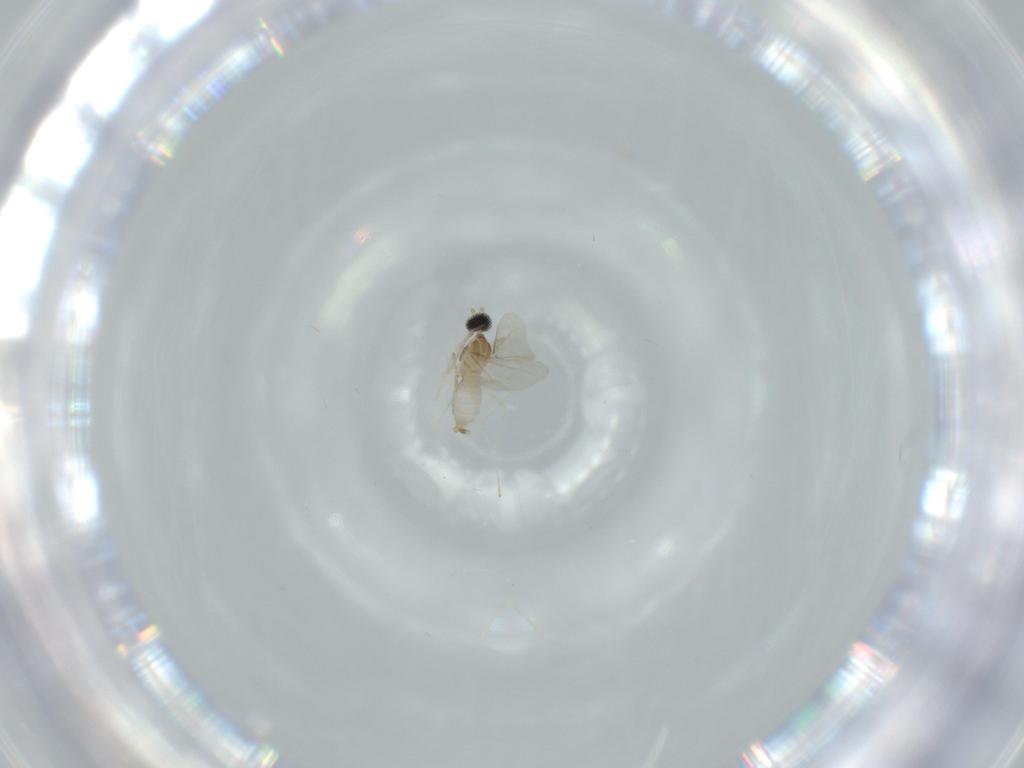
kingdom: Animalia
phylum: Arthropoda
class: Insecta
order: Diptera
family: Cecidomyiidae
